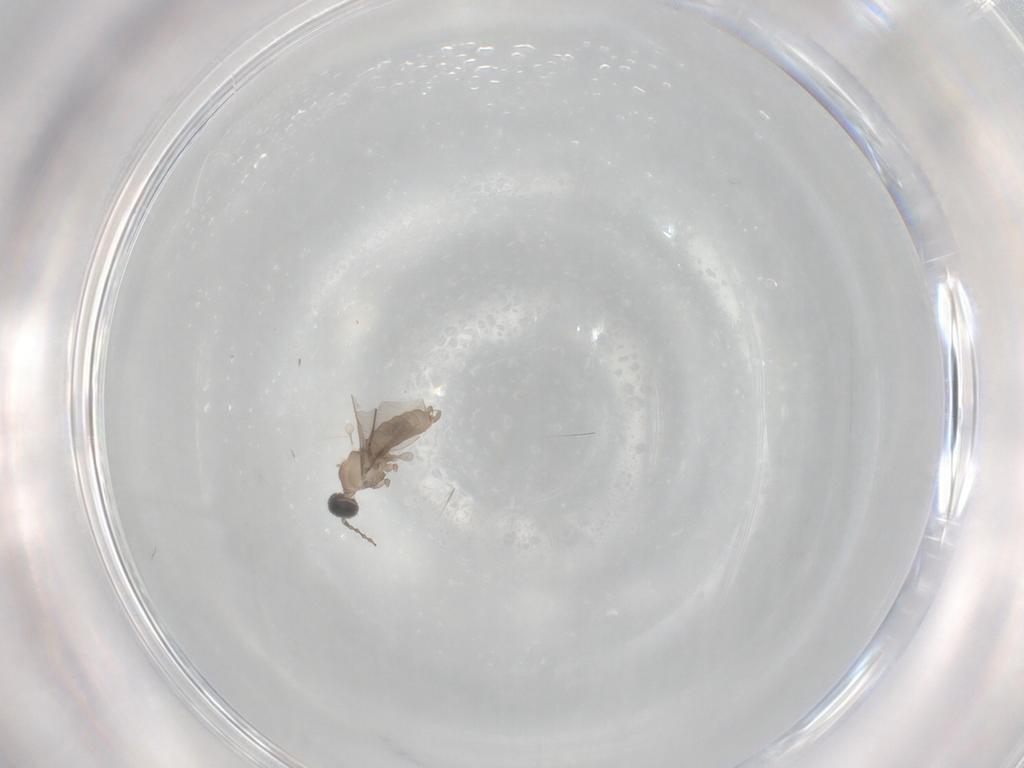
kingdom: Animalia
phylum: Arthropoda
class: Insecta
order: Diptera
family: Cecidomyiidae
